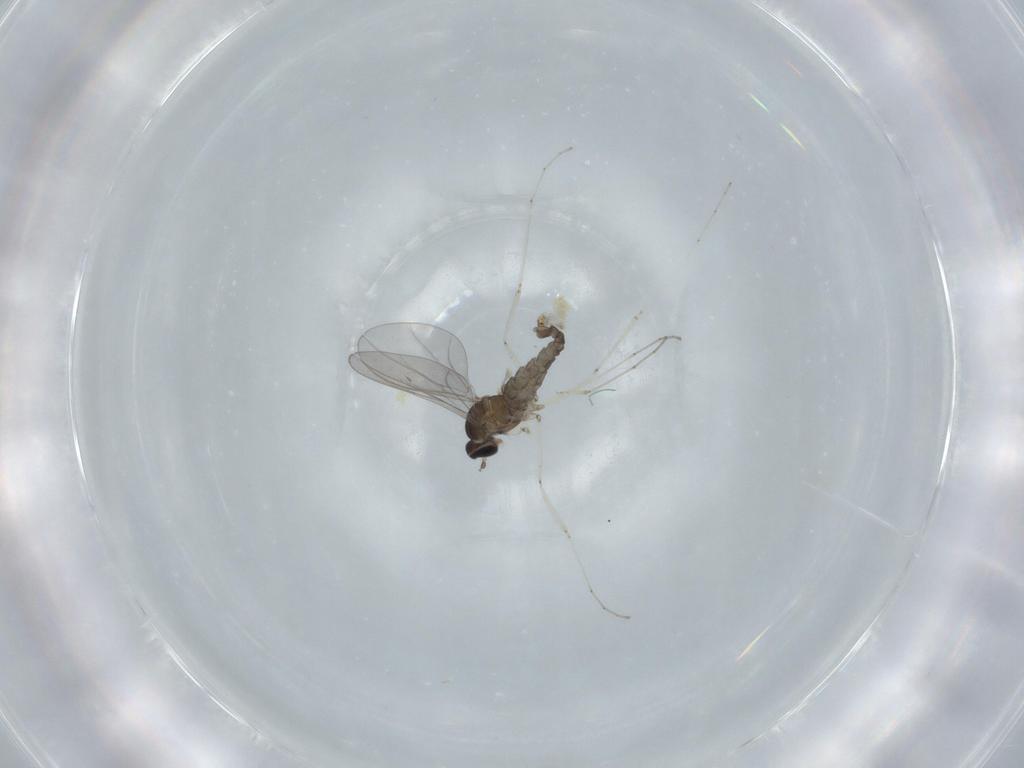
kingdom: Animalia
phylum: Arthropoda
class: Insecta
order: Diptera
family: Cecidomyiidae
